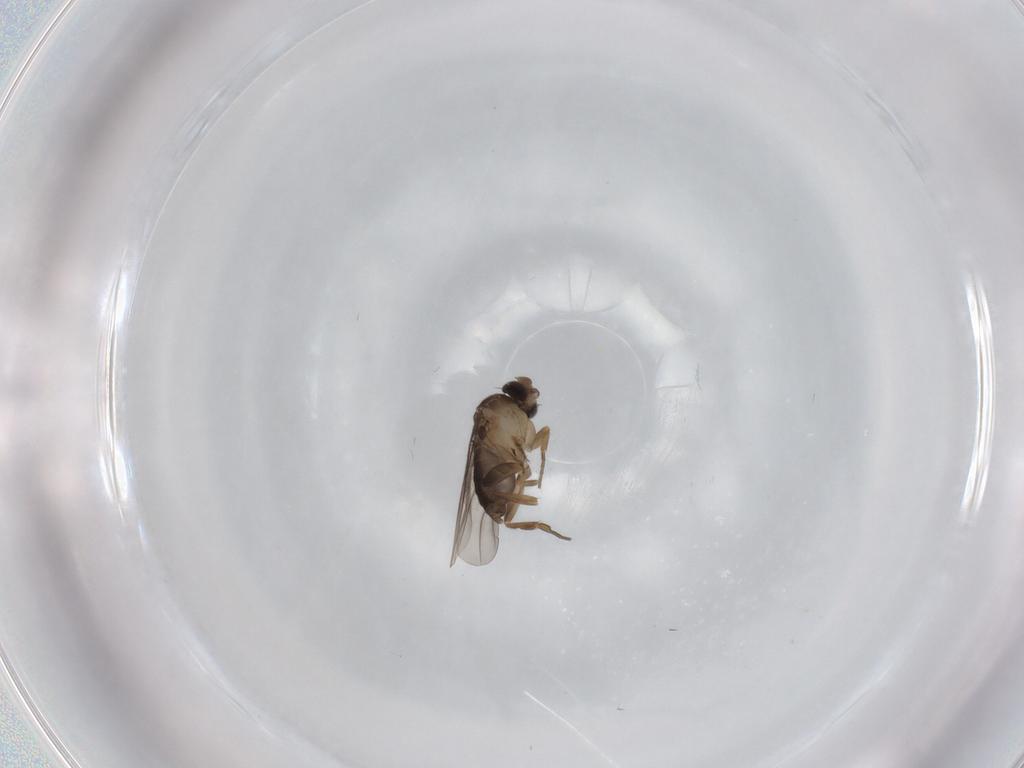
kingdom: Animalia
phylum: Arthropoda
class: Insecta
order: Diptera
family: Phoridae
